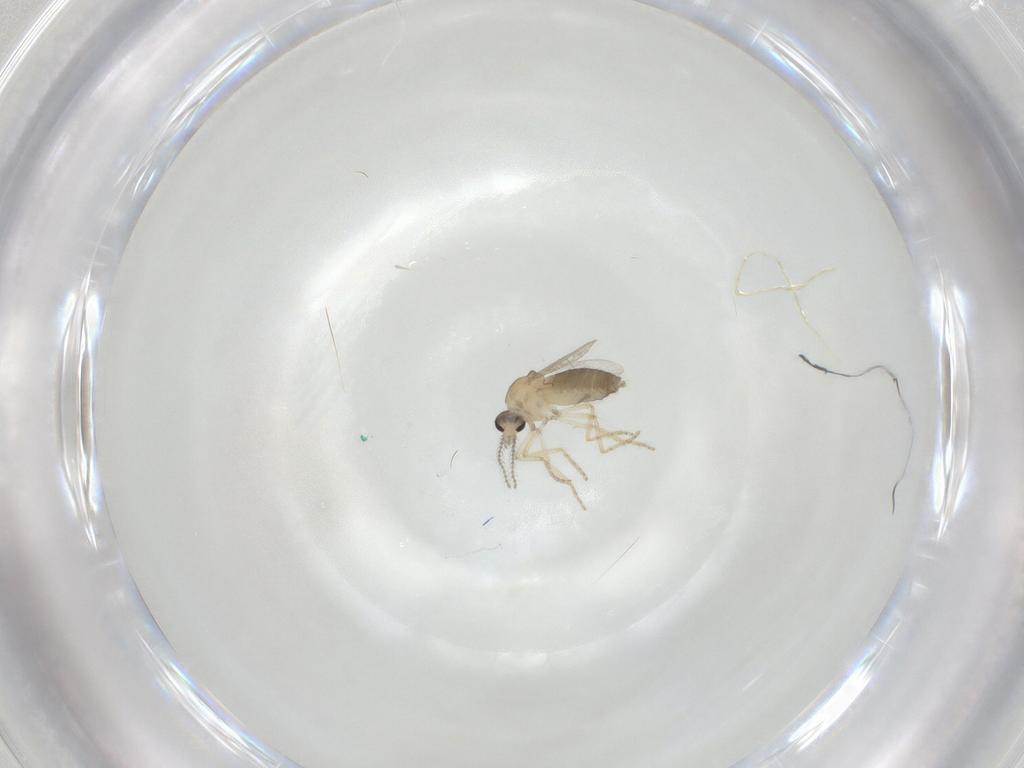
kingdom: Animalia
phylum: Arthropoda
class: Insecta
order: Diptera
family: Ceratopogonidae
